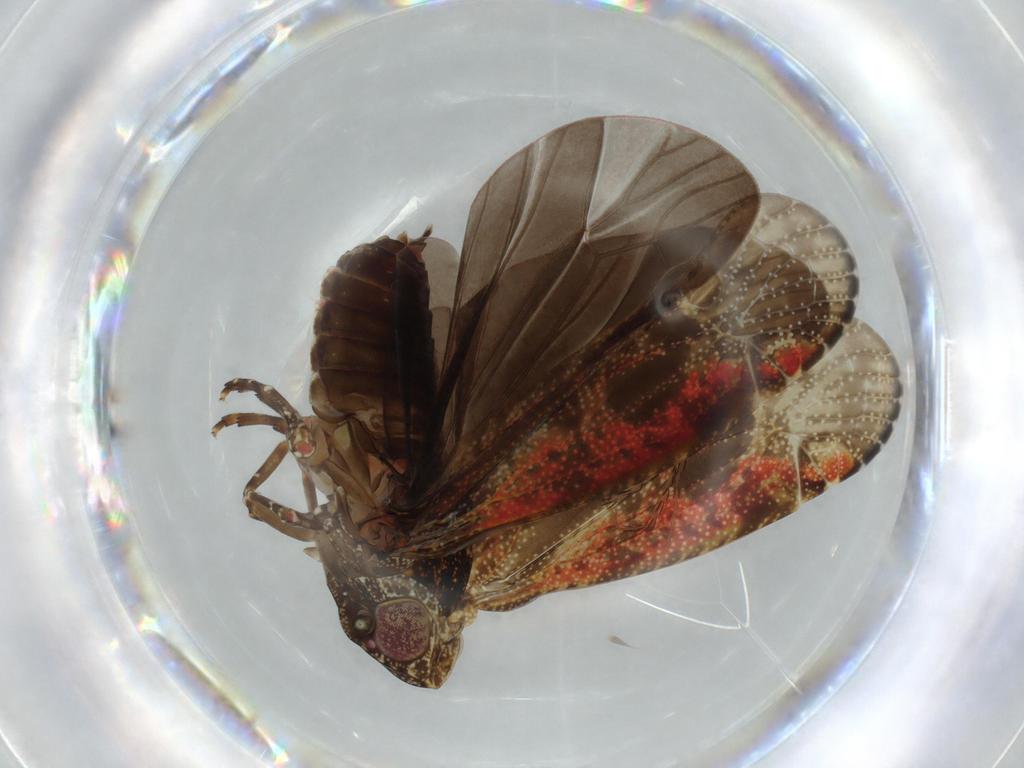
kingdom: Animalia
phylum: Arthropoda
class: Insecta
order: Hemiptera
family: Achilidae
